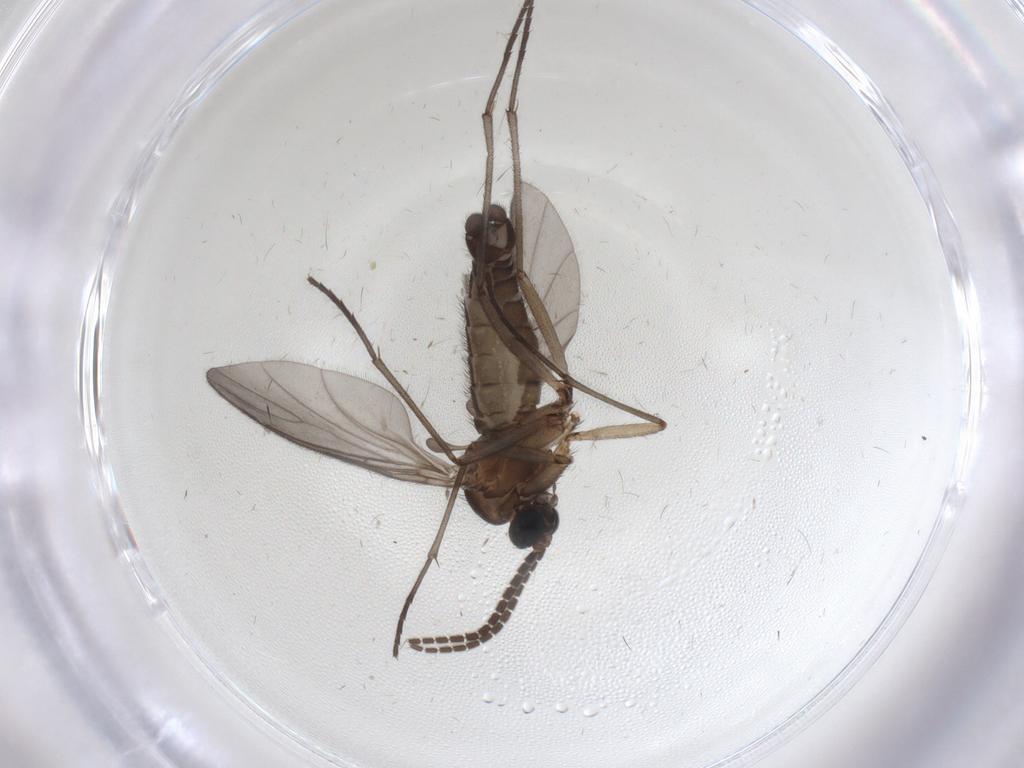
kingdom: Animalia
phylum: Arthropoda
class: Insecta
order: Diptera
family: Sciaridae
